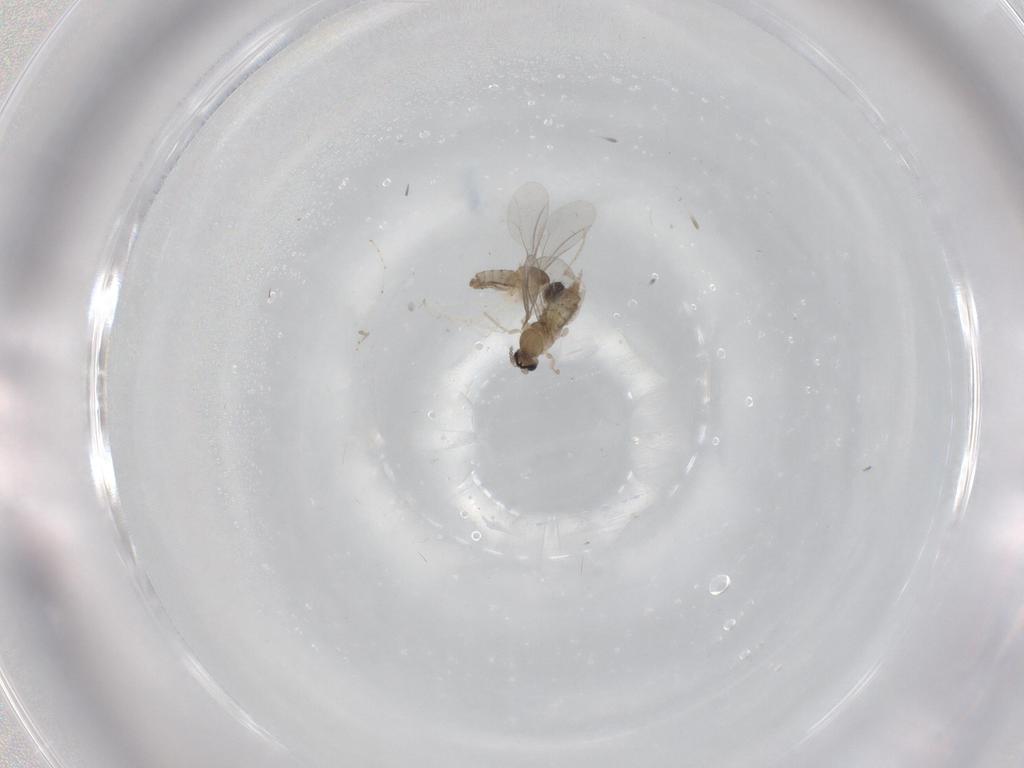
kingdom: Animalia
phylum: Arthropoda
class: Insecta
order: Diptera
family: Cecidomyiidae
